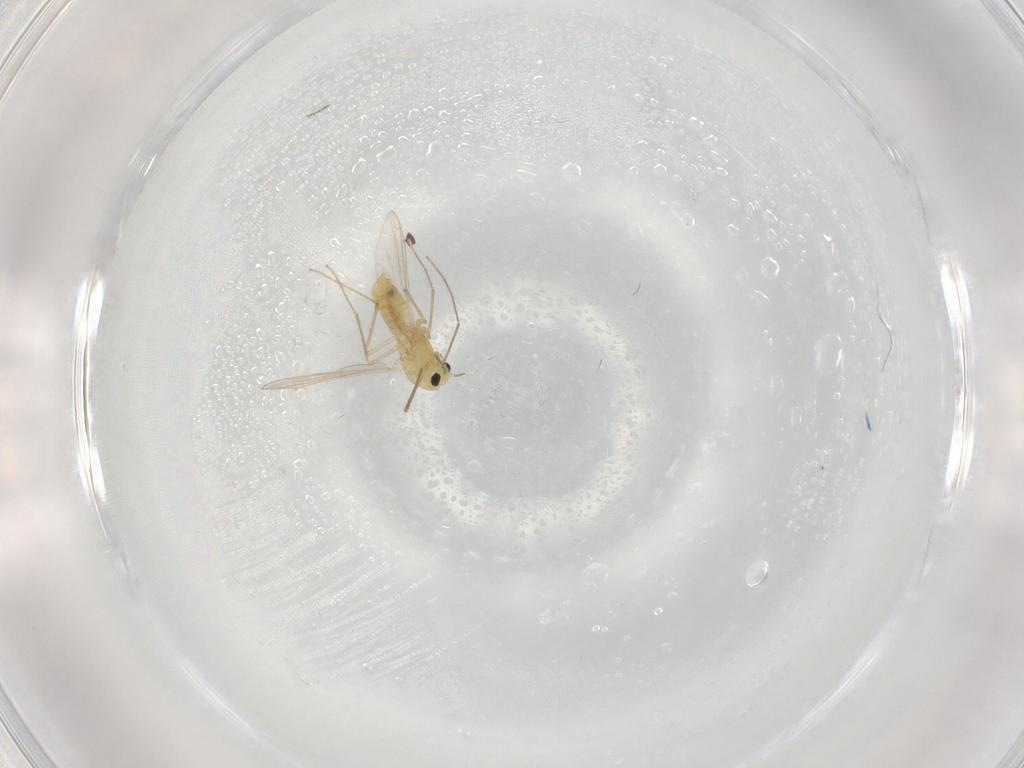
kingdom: Animalia
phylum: Arthropoda
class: Insecta
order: Diptera
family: Chironomidae
